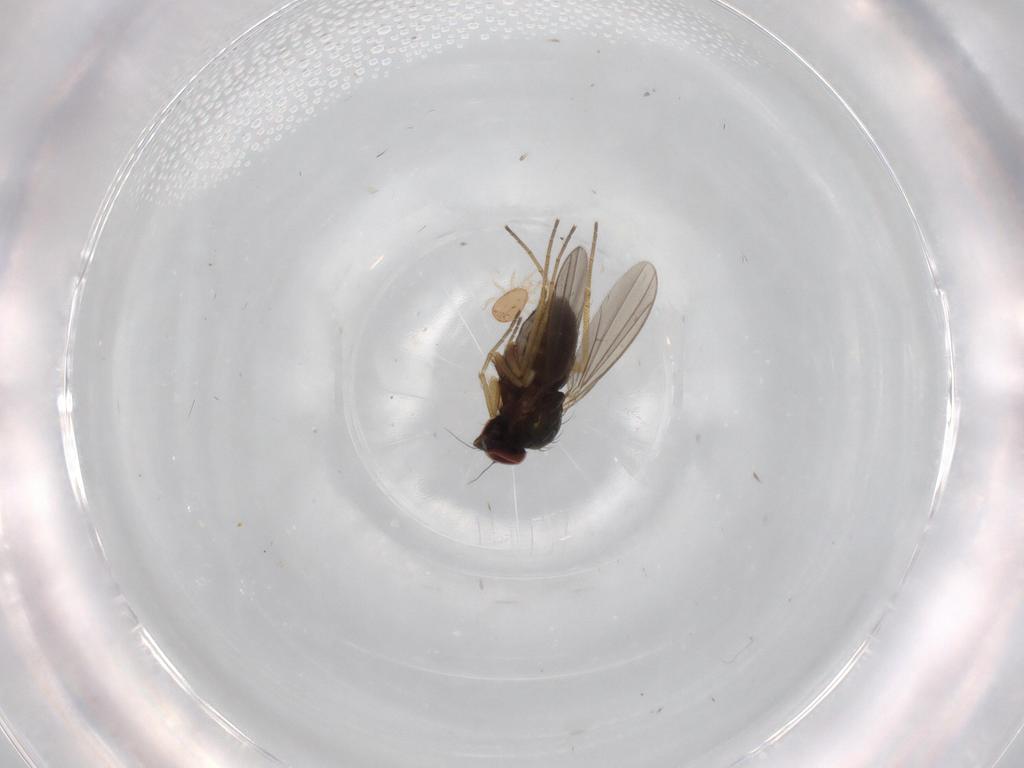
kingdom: Animalia
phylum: Arthropoda
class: Insecta
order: Diptera
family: Dolichopodidae
